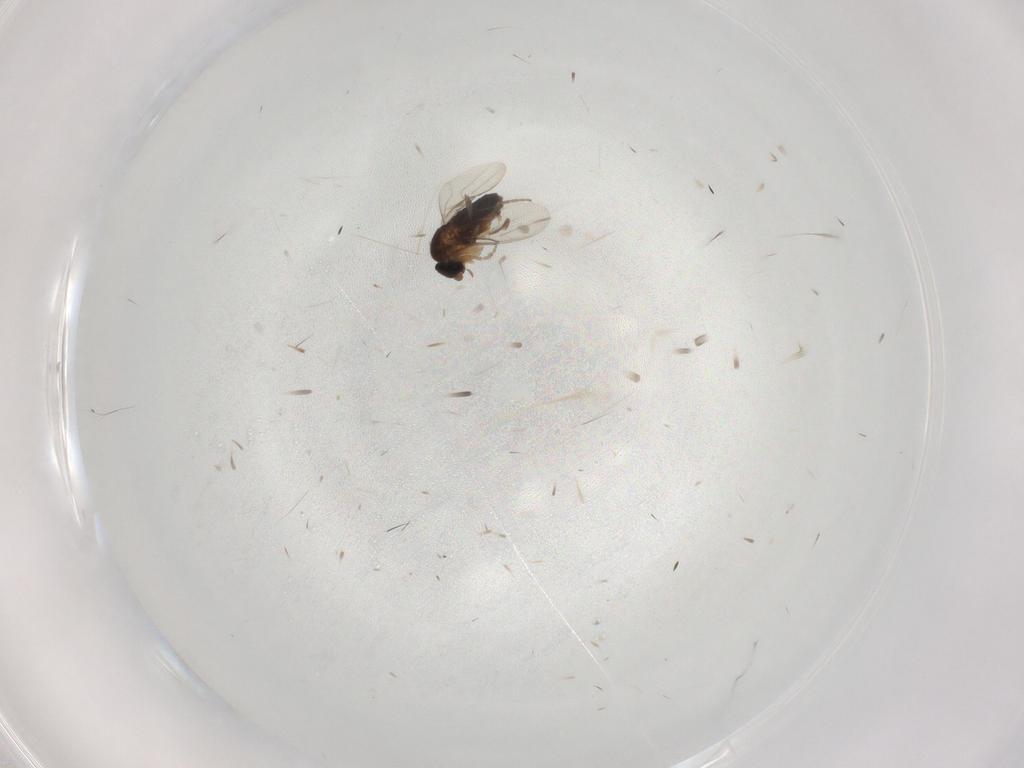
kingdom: Animalia
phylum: Arthropoda
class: Insecta
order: Diptera
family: Phoridae
